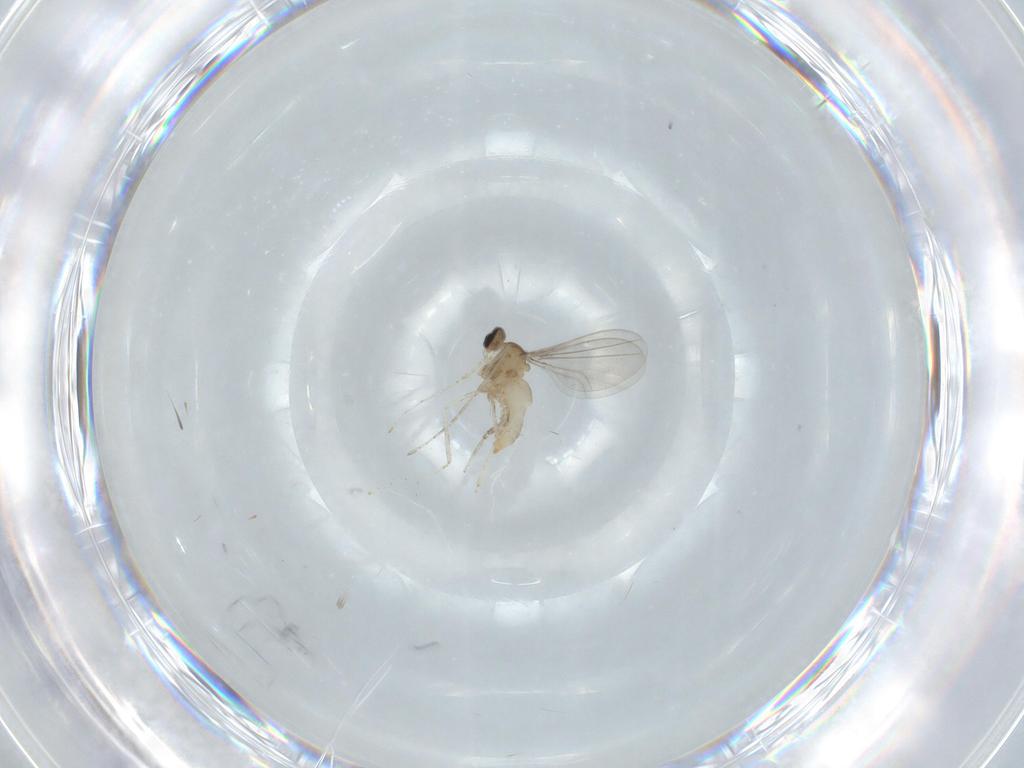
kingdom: Animalia
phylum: Arthropoda
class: Insecta
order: Diptera
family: Cecidomyiidae
